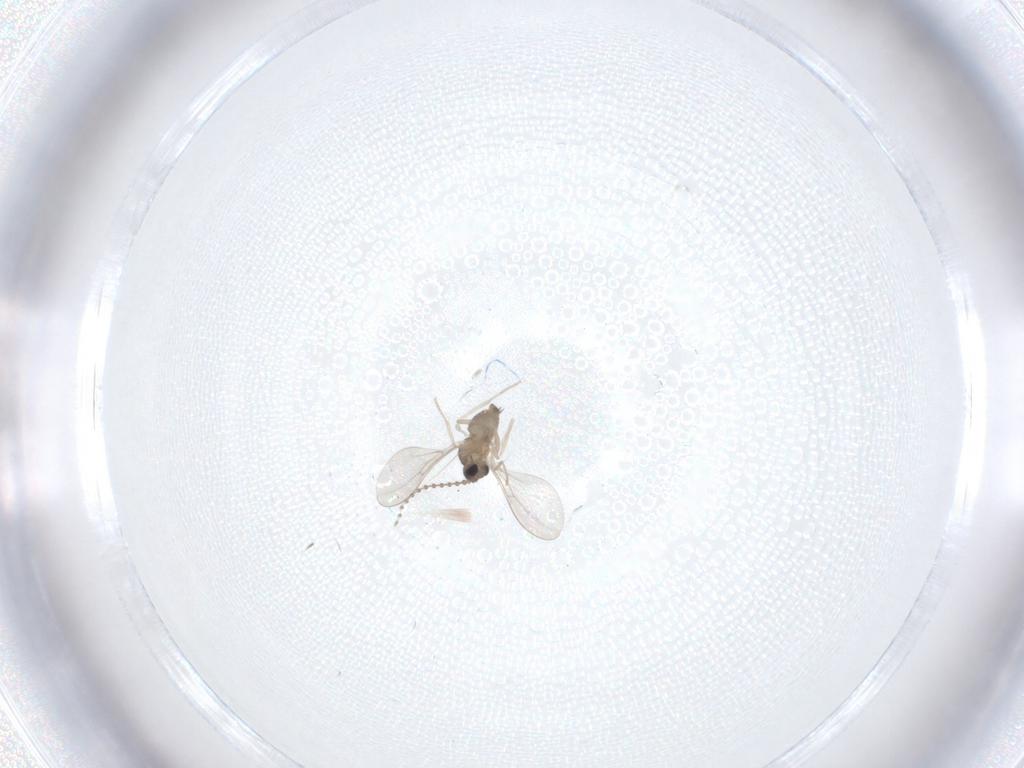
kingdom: Animalia
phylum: Arthropoda
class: Insecta
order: Diptera
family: Cecidomyiidae
